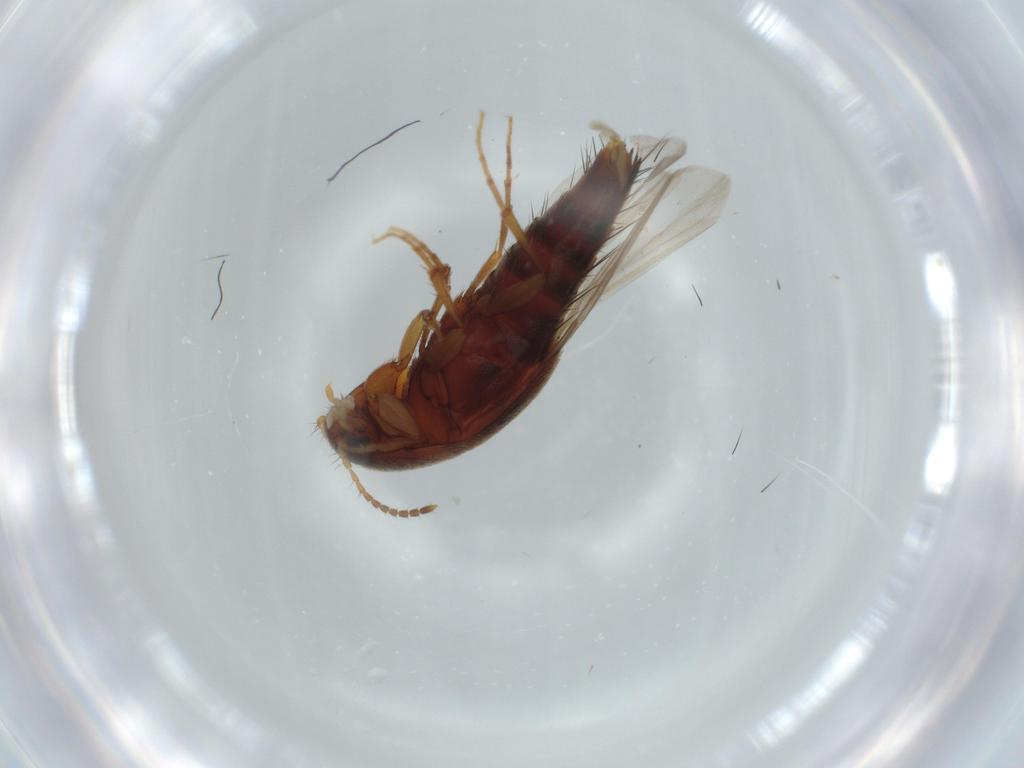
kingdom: Animalia
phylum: Arthropoda
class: Insecta
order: Coleoptera
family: Staphylinidae
